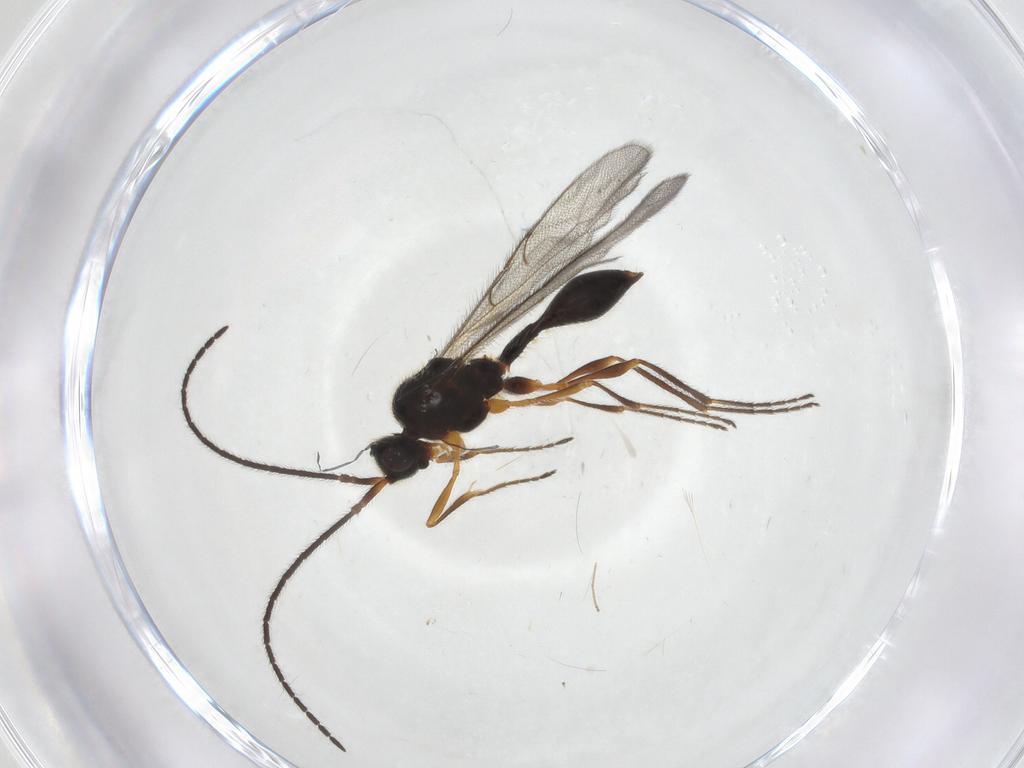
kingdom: Animalia
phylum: Arthropoda
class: Insecta
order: Hymenoptera
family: Diapriidae
